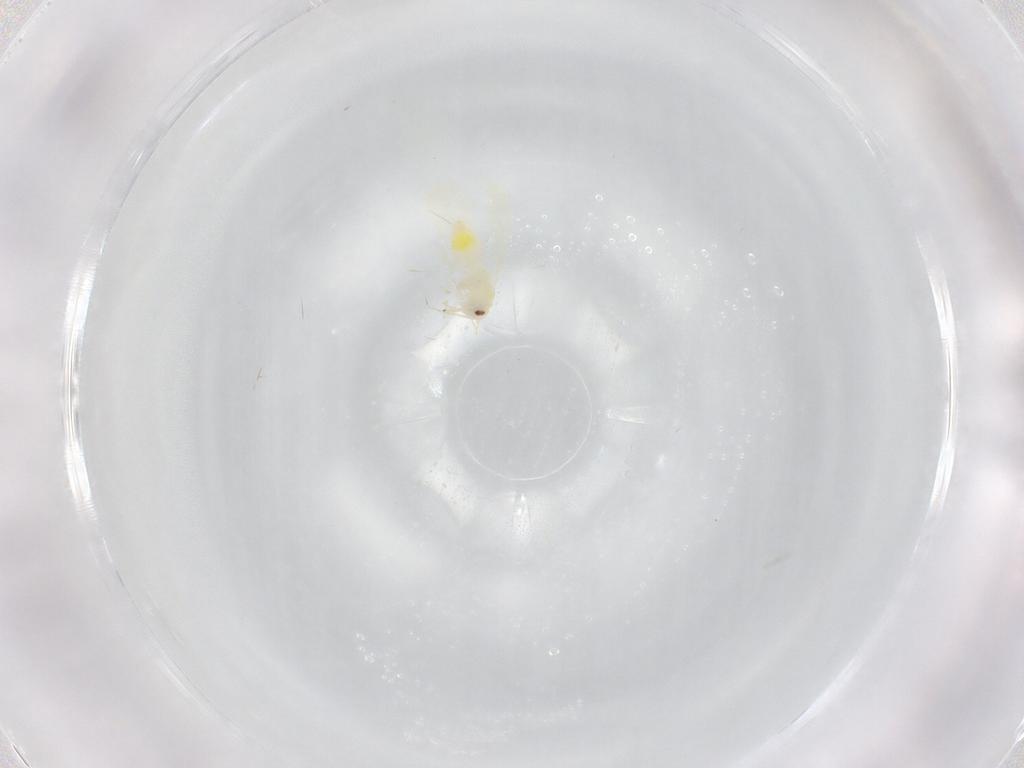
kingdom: Animalia
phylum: Arthropoda
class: Insecta
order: Hemiptera
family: Aleyrodidae
